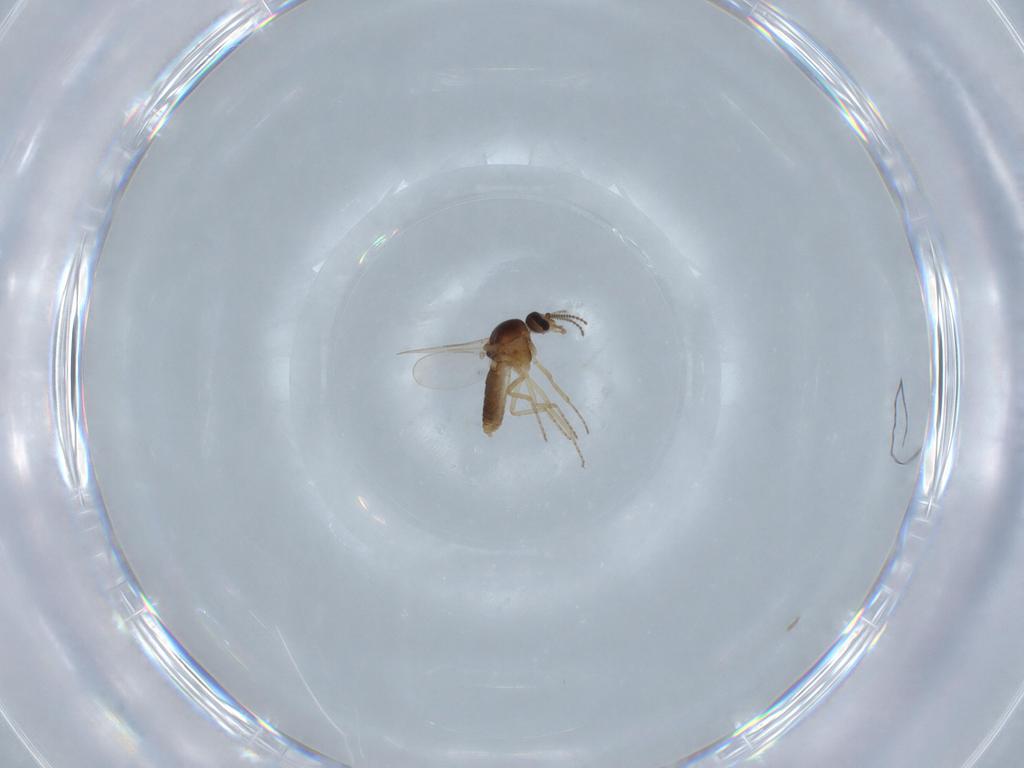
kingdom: Animalia
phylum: Arthropoda
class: Insecta
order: Diptera
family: Ceratopogonidae
